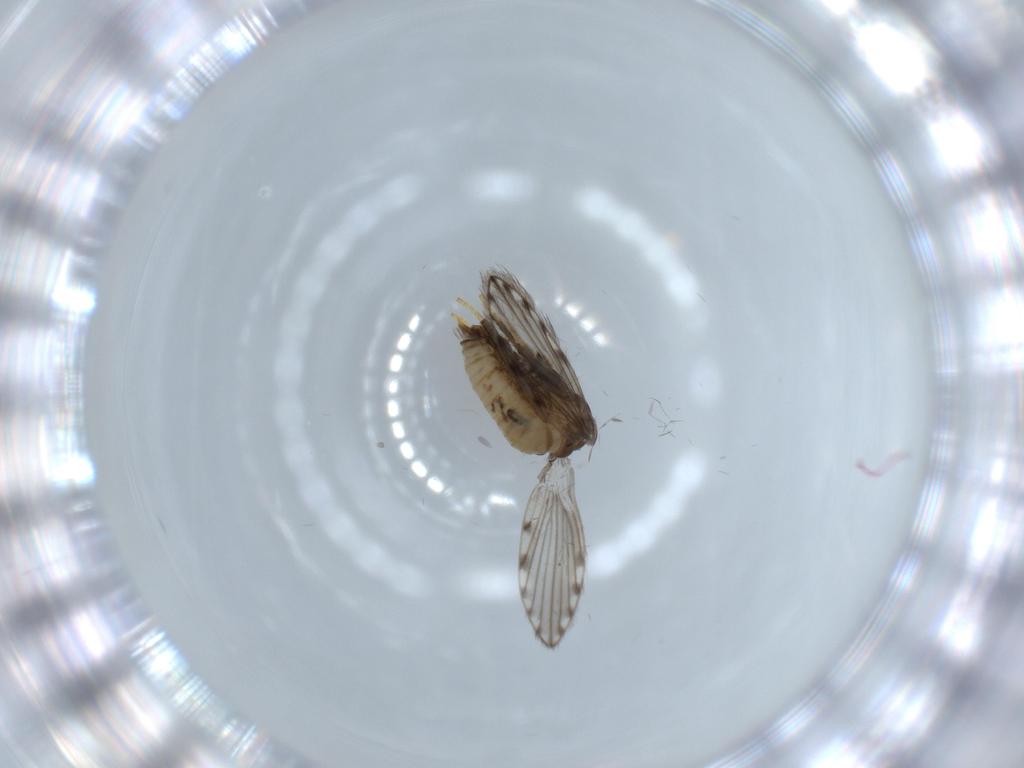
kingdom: Animalia
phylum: Arthropoda
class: Insecta
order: Diptera
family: Psychodidae
